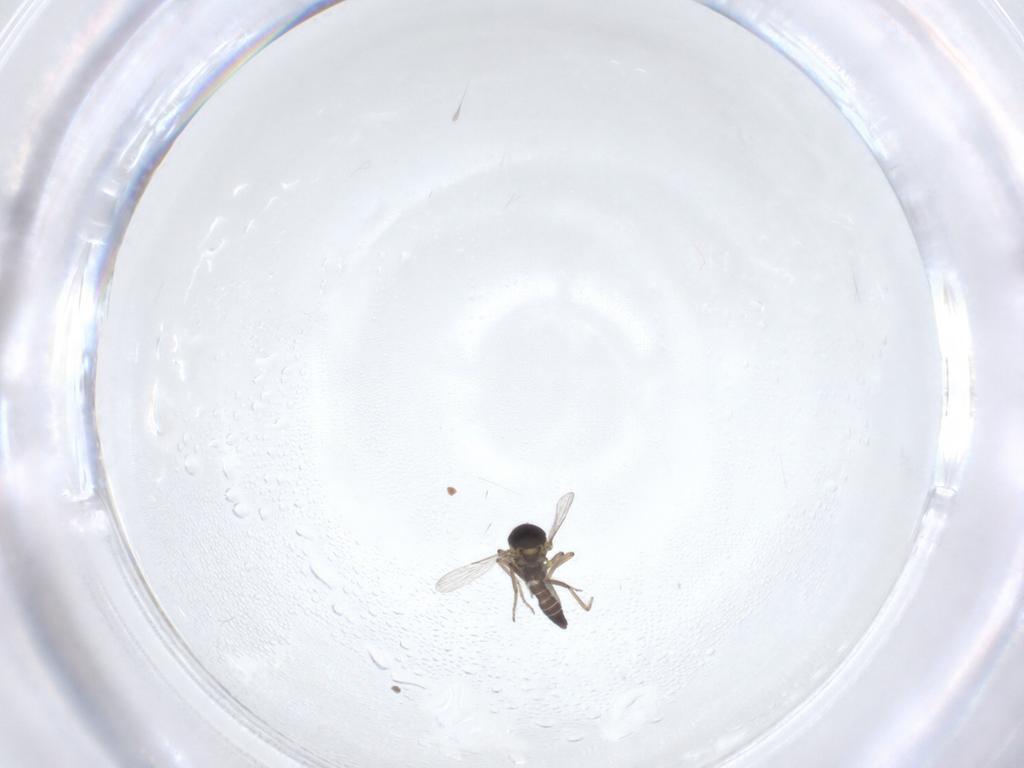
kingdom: Animalia
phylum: Arthropoda
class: Insecta
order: Diptera
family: Ceratopogonidae
